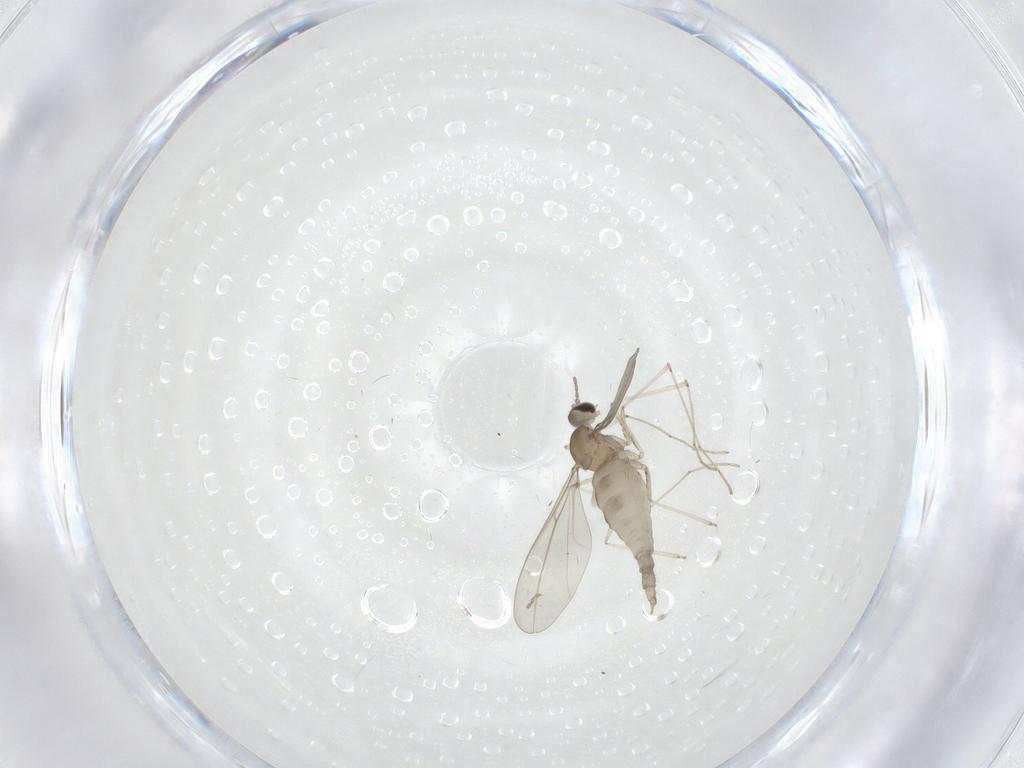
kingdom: Animalia
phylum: Arthropoda
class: Insecta
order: Diptera
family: Cecidomyiidae
